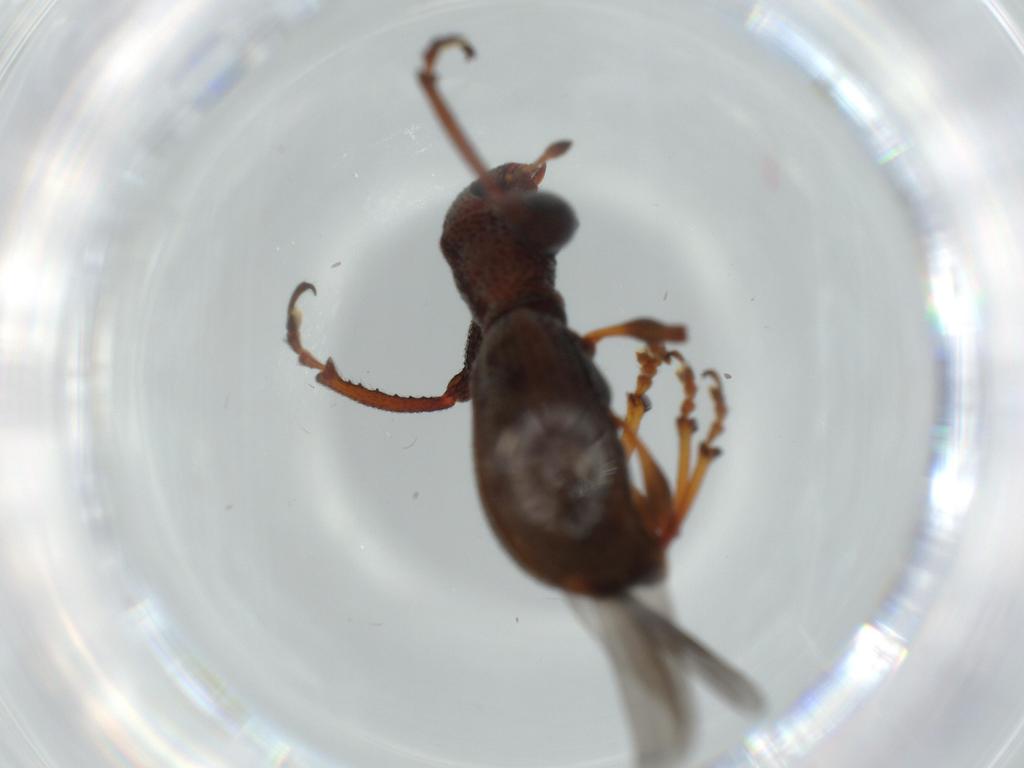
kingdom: Animalia
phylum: Arthropoda
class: Insecta
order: Coleoptera
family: Curculionidae
